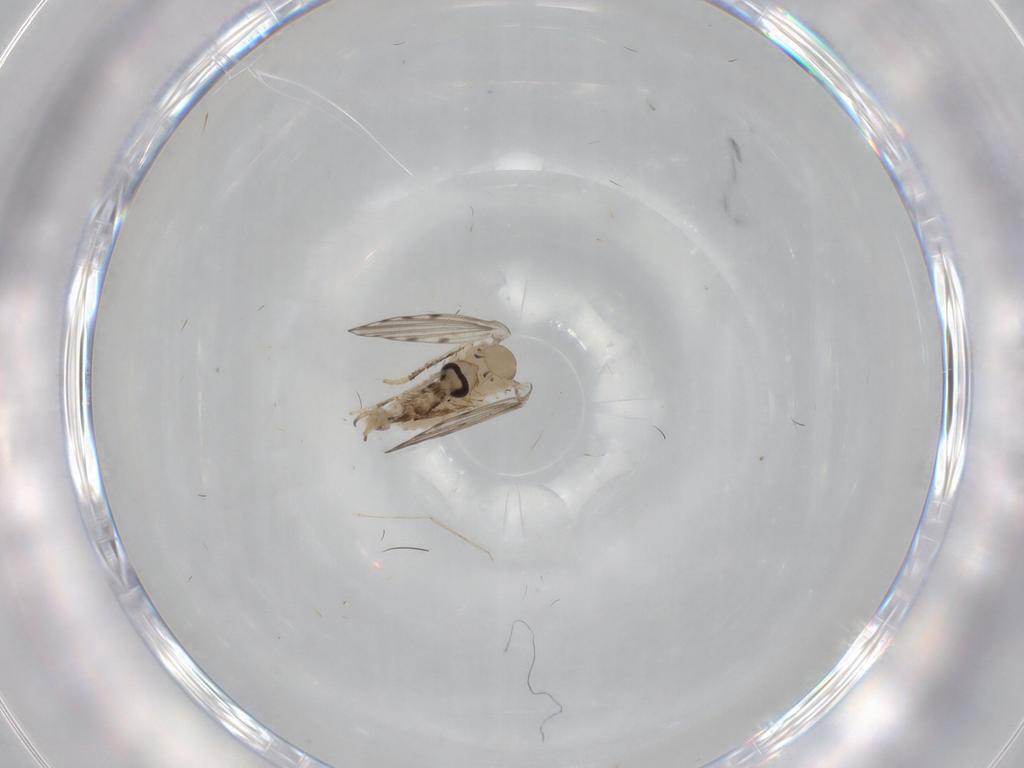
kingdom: Animalia
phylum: Arthropoda
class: Insecta
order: Diptera
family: Psychodidae
